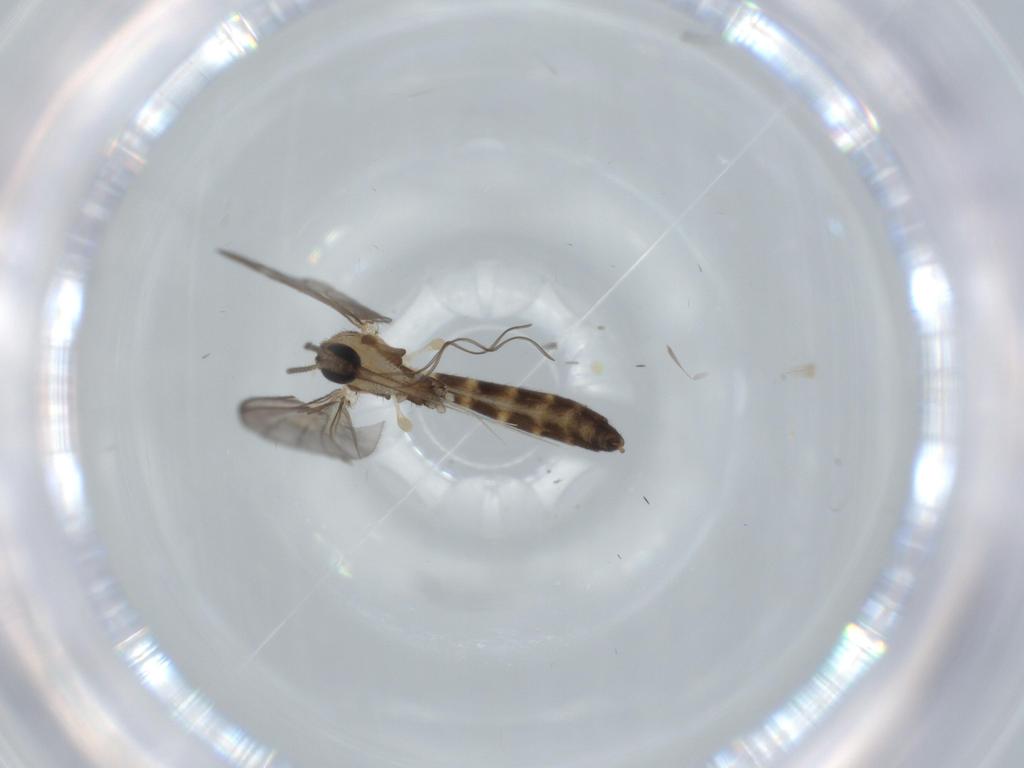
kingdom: Animalia
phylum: Arthropoda
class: Insecta
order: Diptera
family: Keroplatidae
